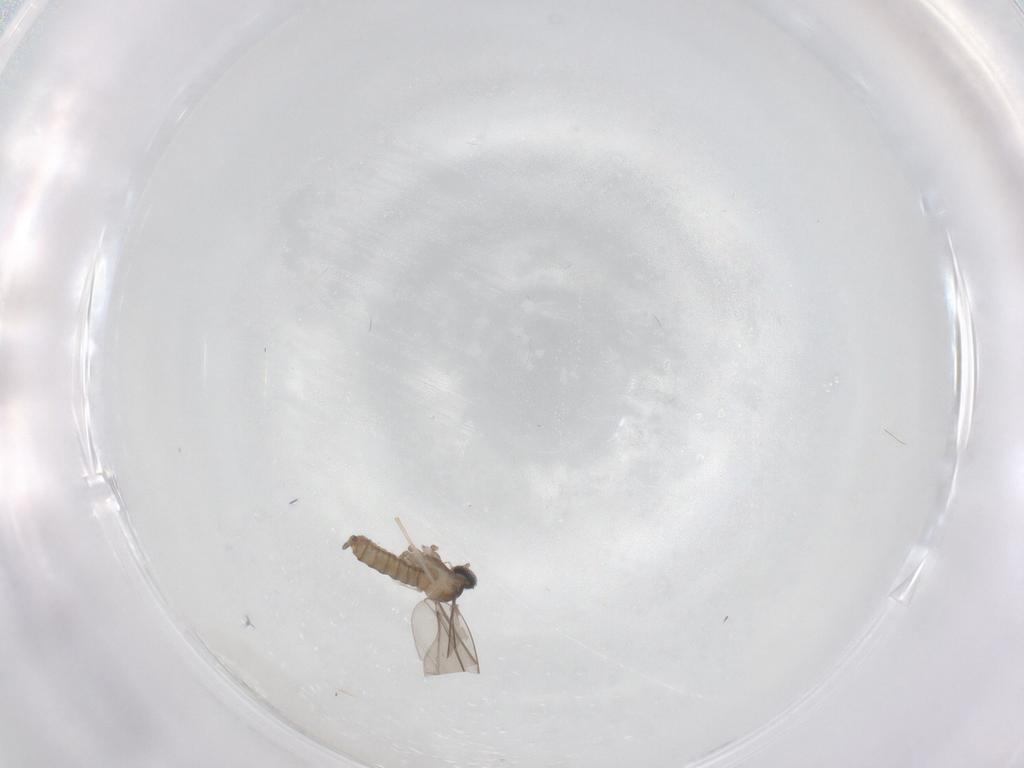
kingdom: Animalia
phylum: Arthropoda
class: Insecta
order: Diptera
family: Cecidomyiidae
